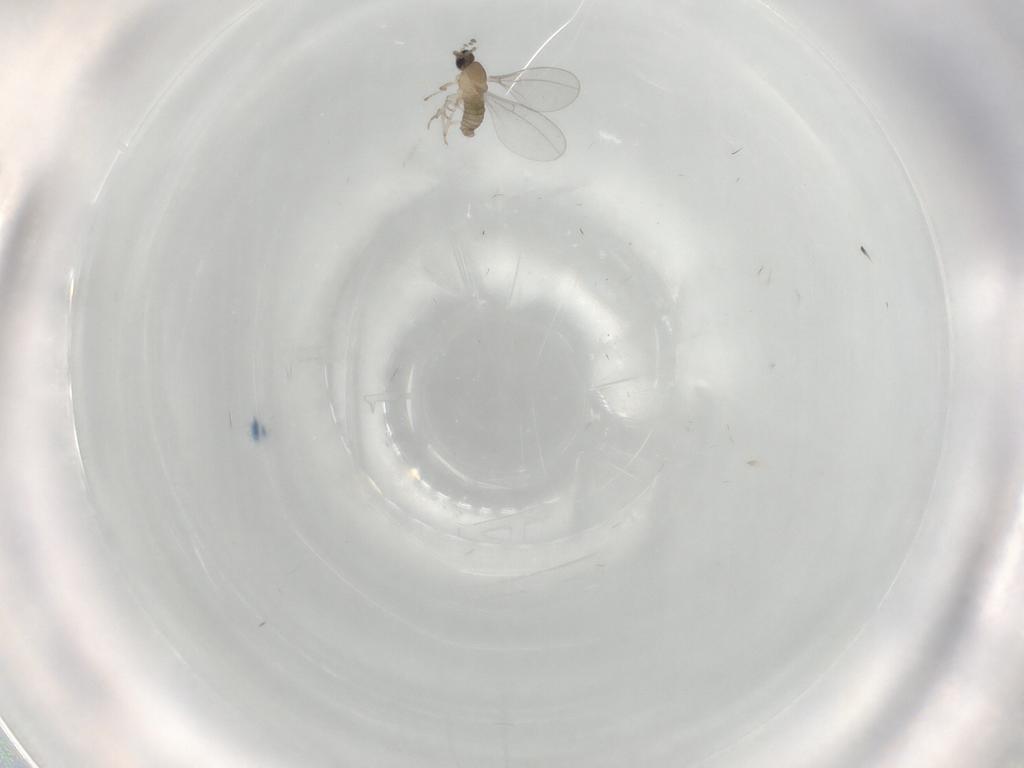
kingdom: Animalia
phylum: Arthropoda
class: Insecta
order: Diptera
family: Cecidomyiidae
